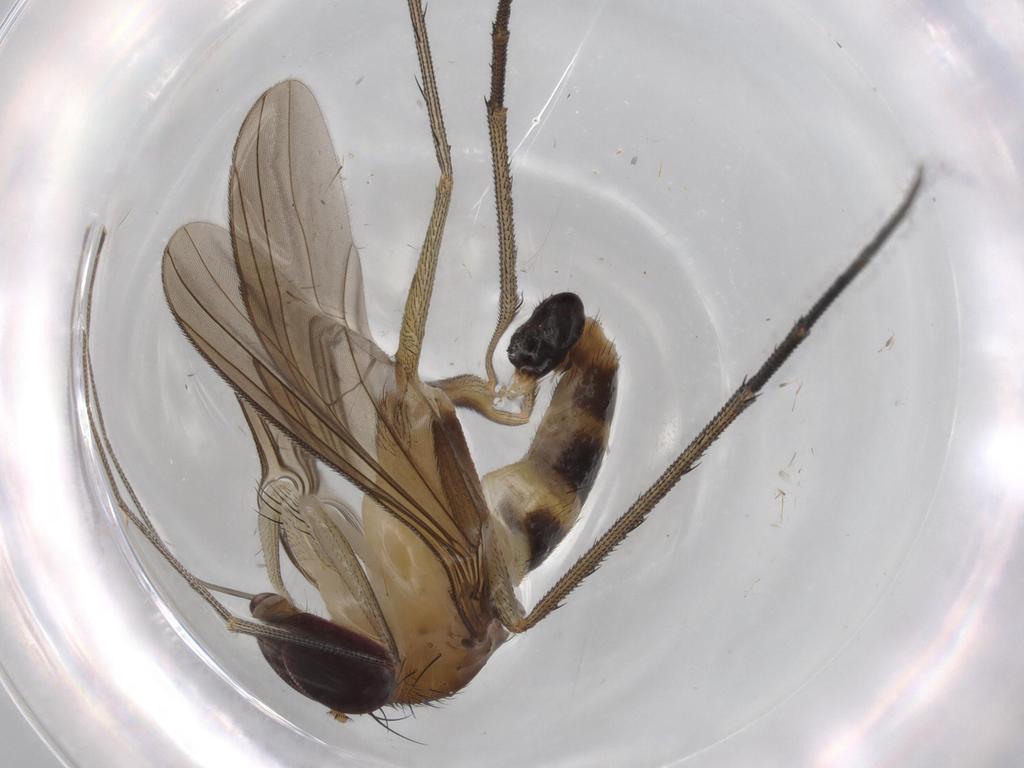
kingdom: Animalia
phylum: Arthropoda
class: Insecta
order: Diptera
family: Dolichopodidae
